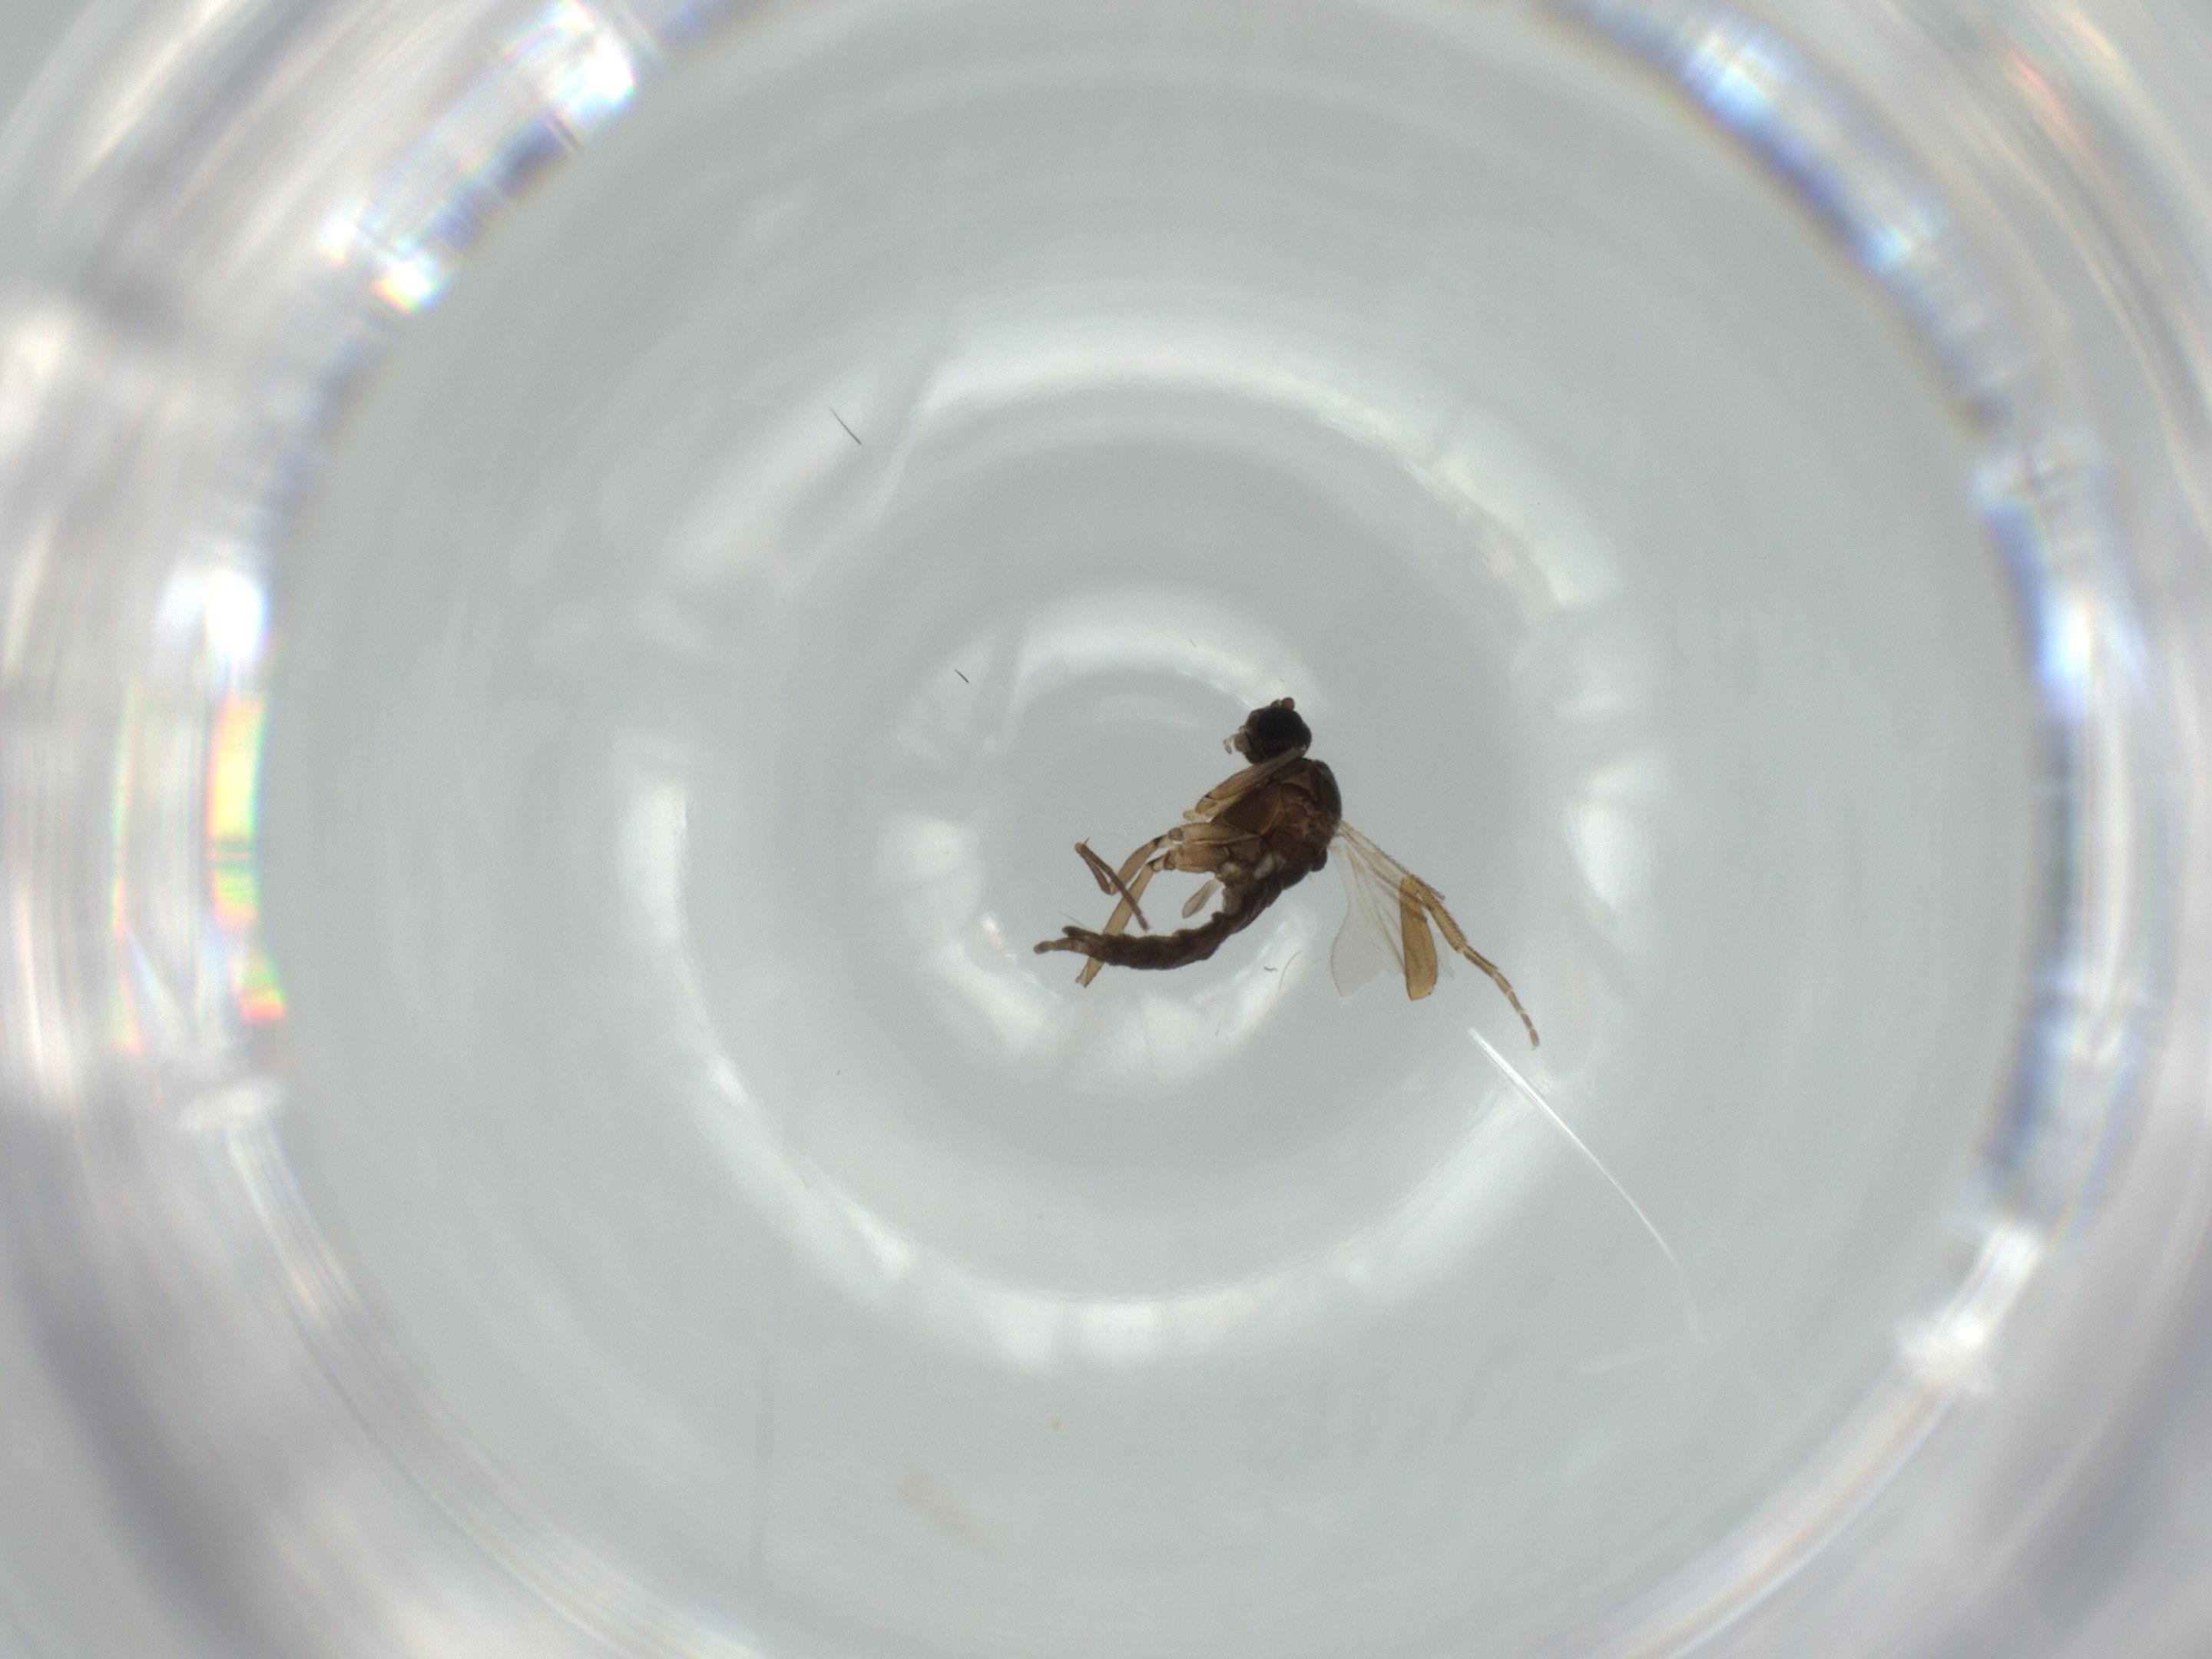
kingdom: Animalia
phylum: Arthropoda
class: Insecta
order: Diptera
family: Sciaridae
